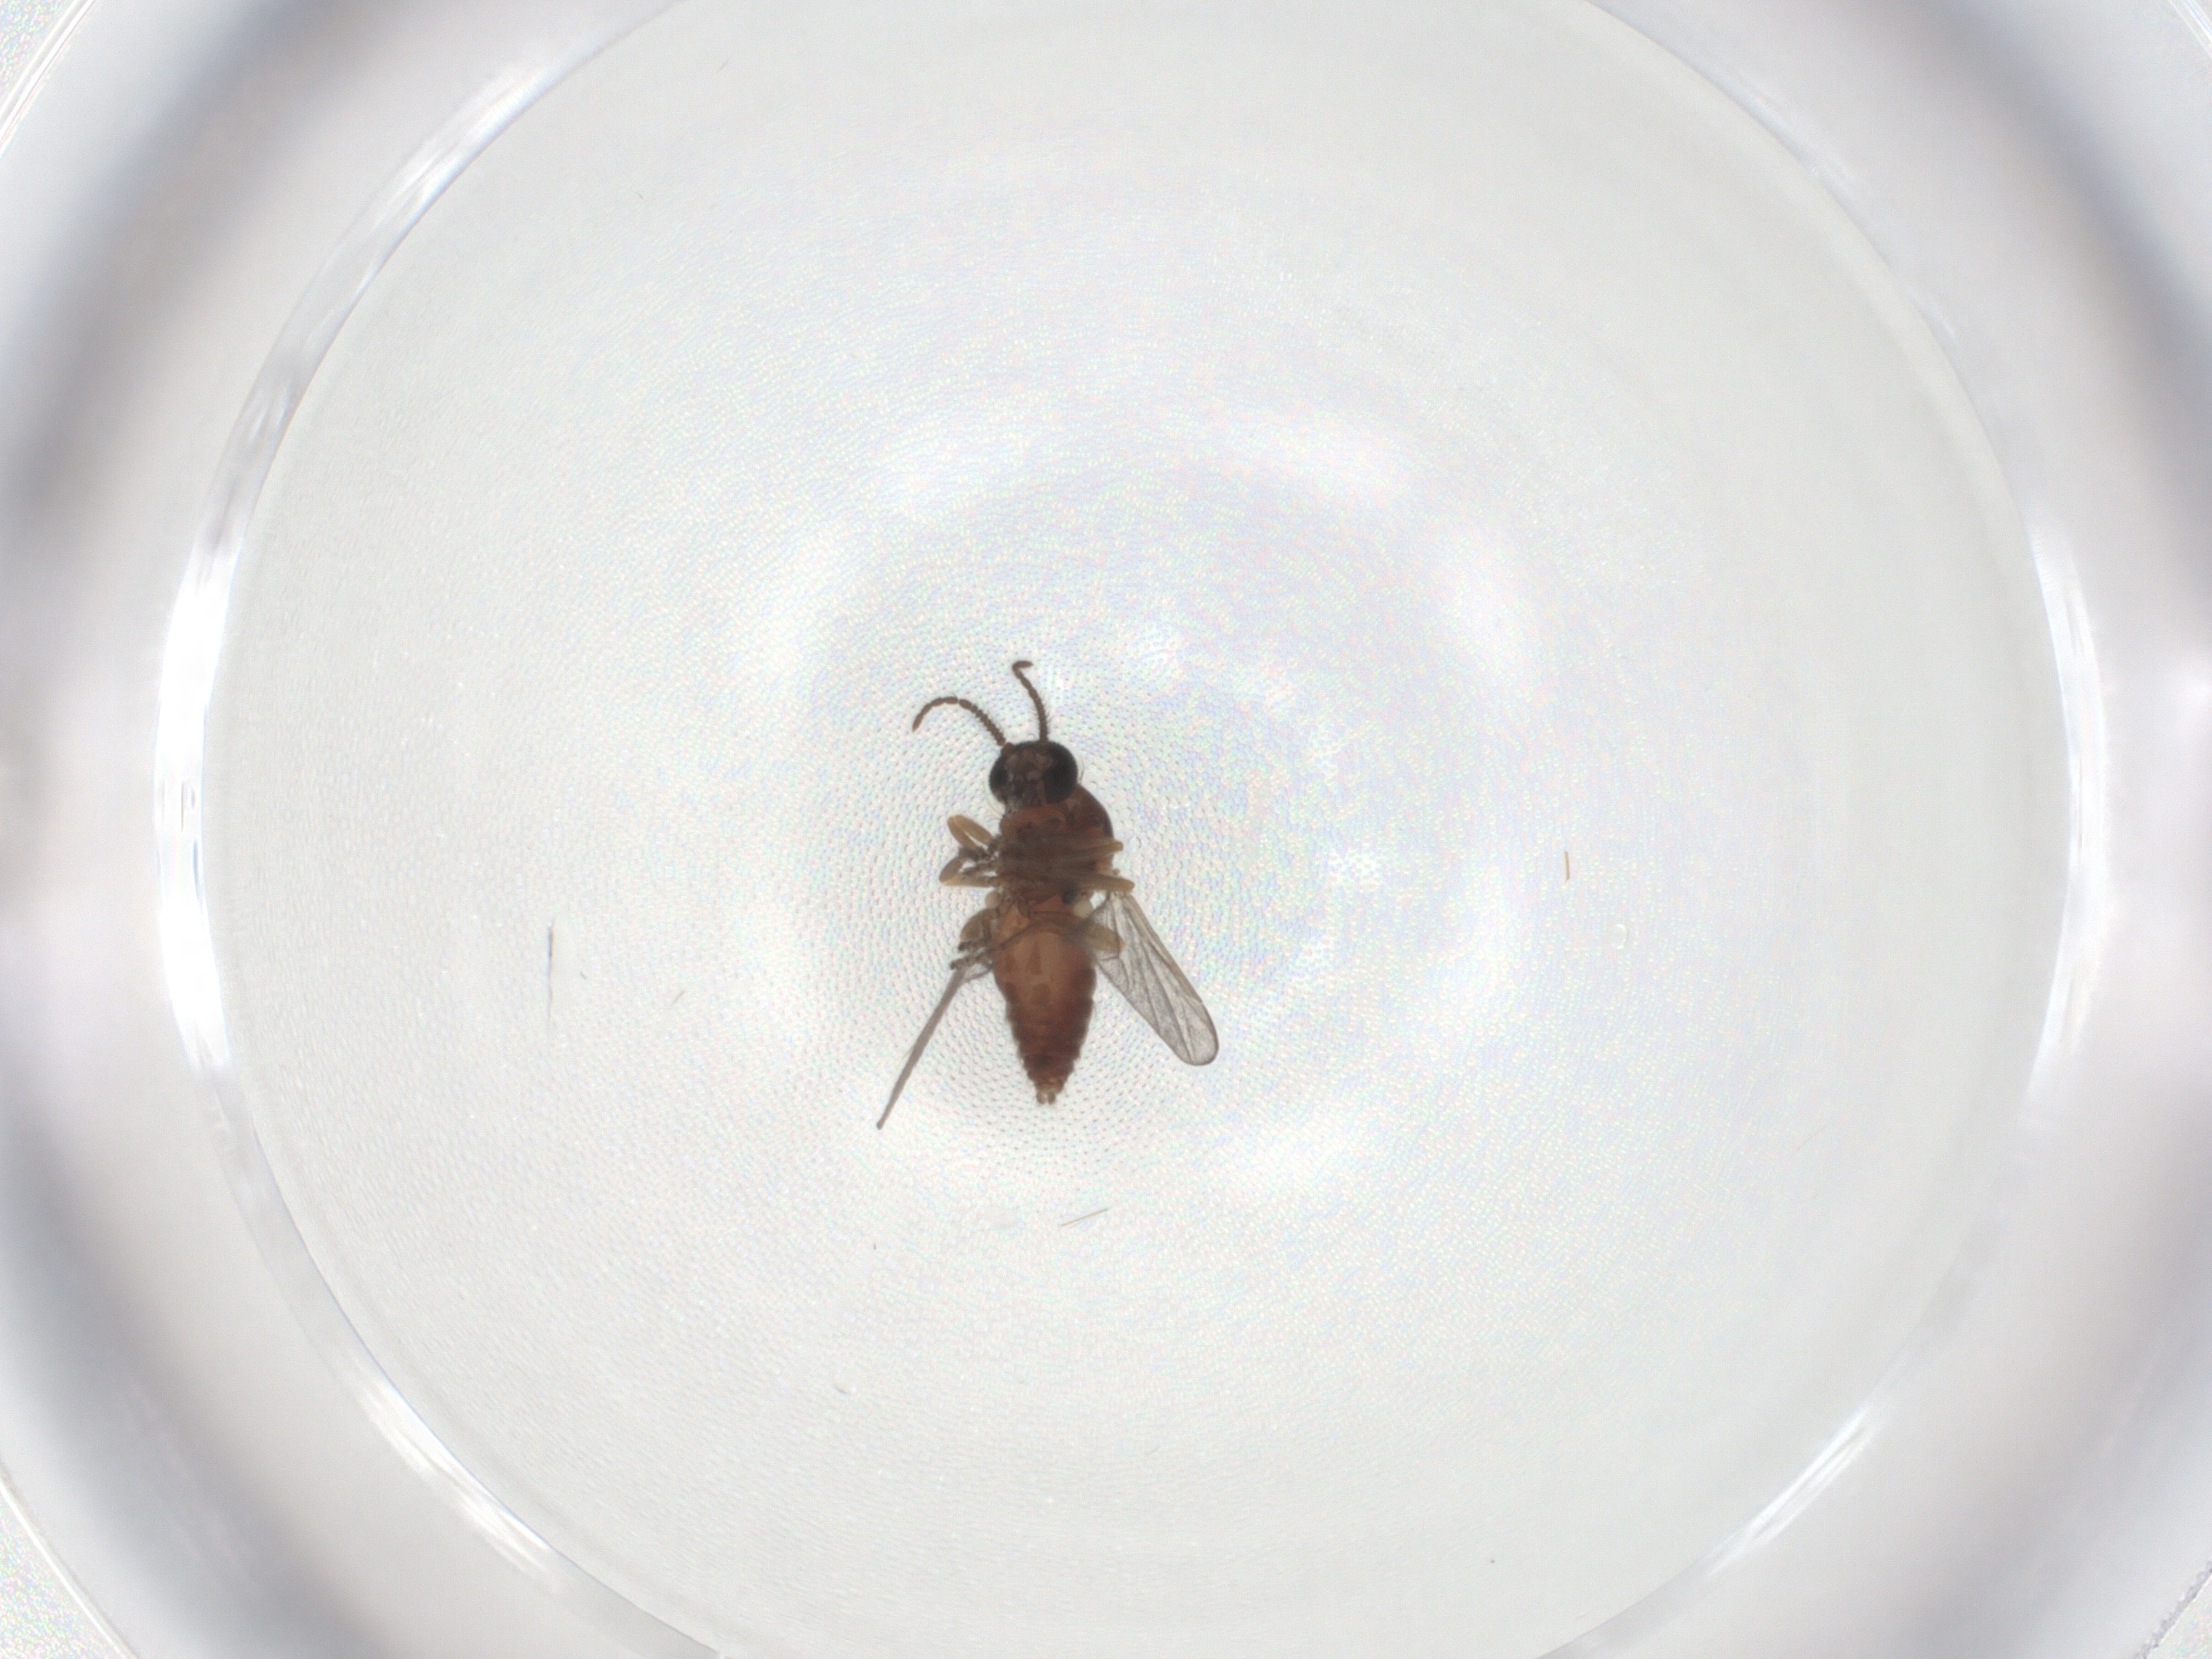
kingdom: Animalia
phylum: Arthropoda
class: Insecta
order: Diptera
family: Ceratopogonidae
